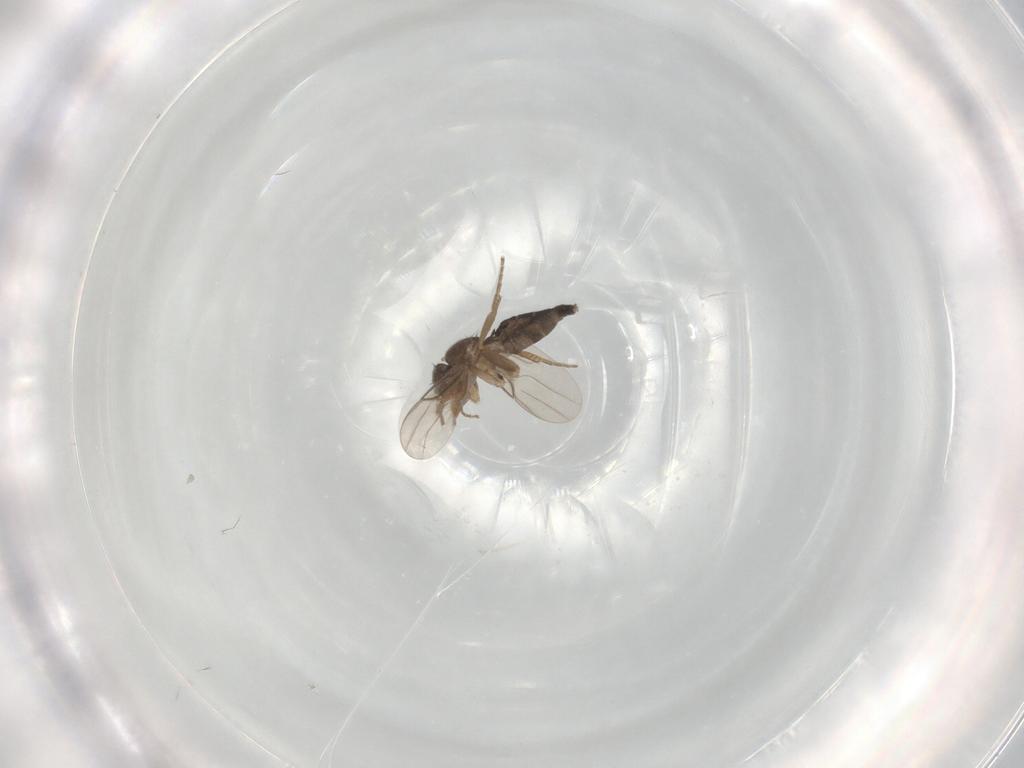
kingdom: Animalia
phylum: Arthropoda
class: Insecta
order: Diptera
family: Phoridae
